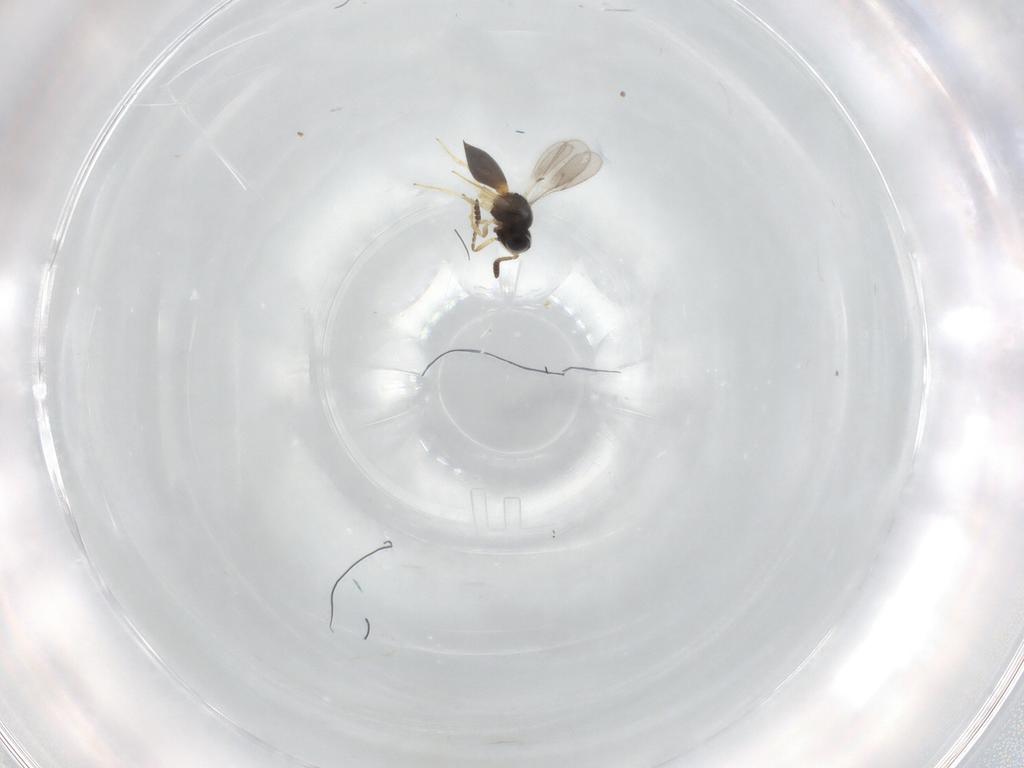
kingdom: Animalia
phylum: Arthropoda
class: Insecta
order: Hymenoptera
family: Scelionidae
